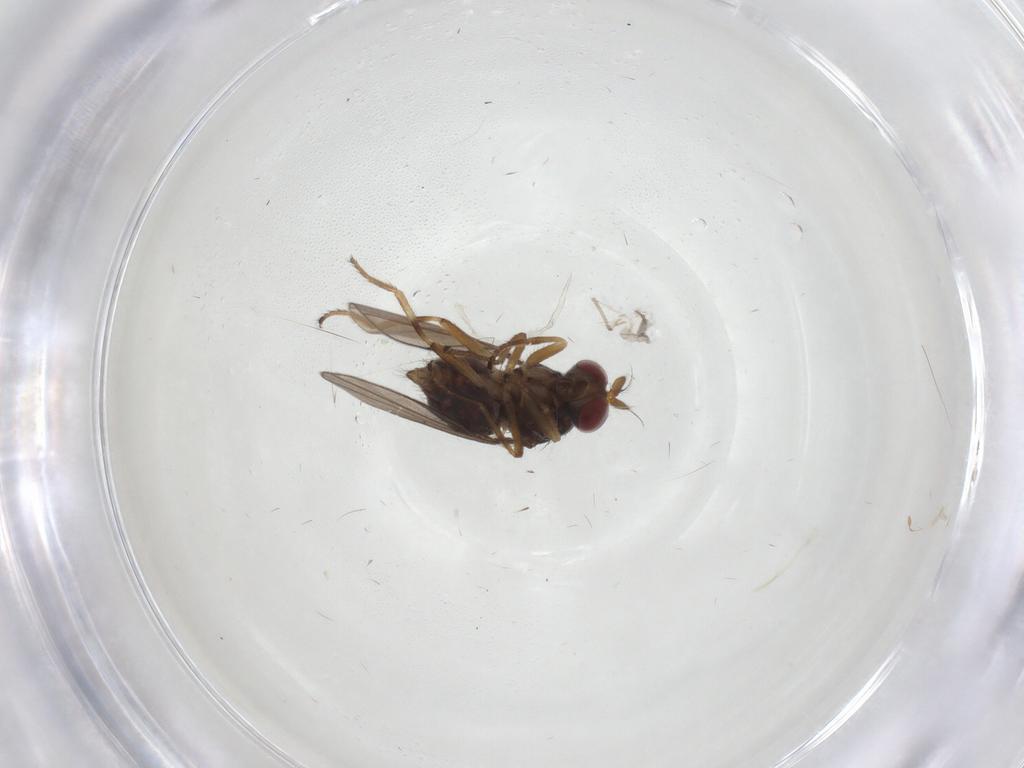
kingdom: Animalia
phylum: Arthropoda
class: Insecta
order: Diptera
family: Ephydridae
